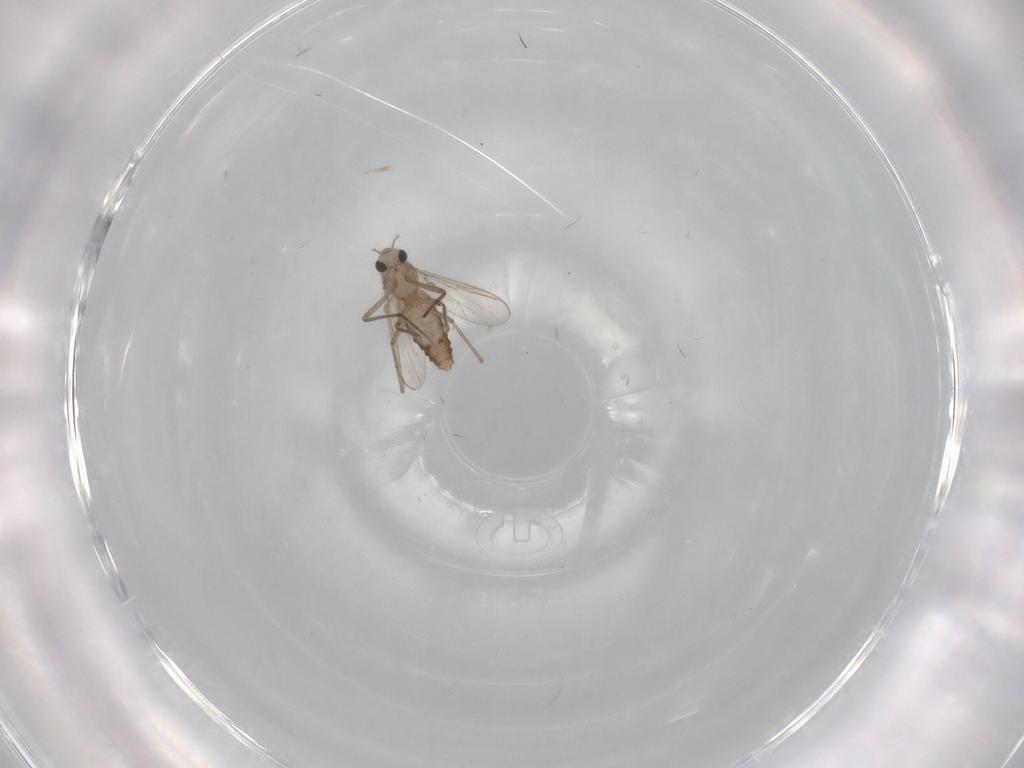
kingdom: Animalia
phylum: Arthropoda
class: Insecta
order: Diptera
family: Chironomidae
